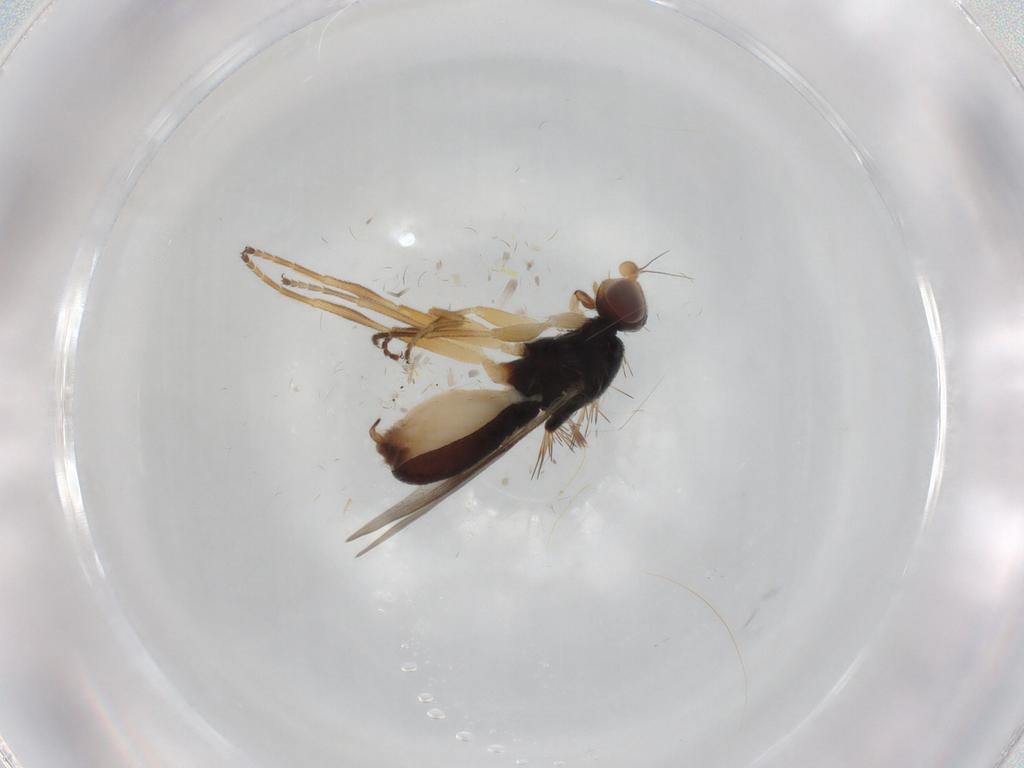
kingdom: Animalia
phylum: Arthropoda
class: Insecta
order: Diptera
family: Chloropidae
